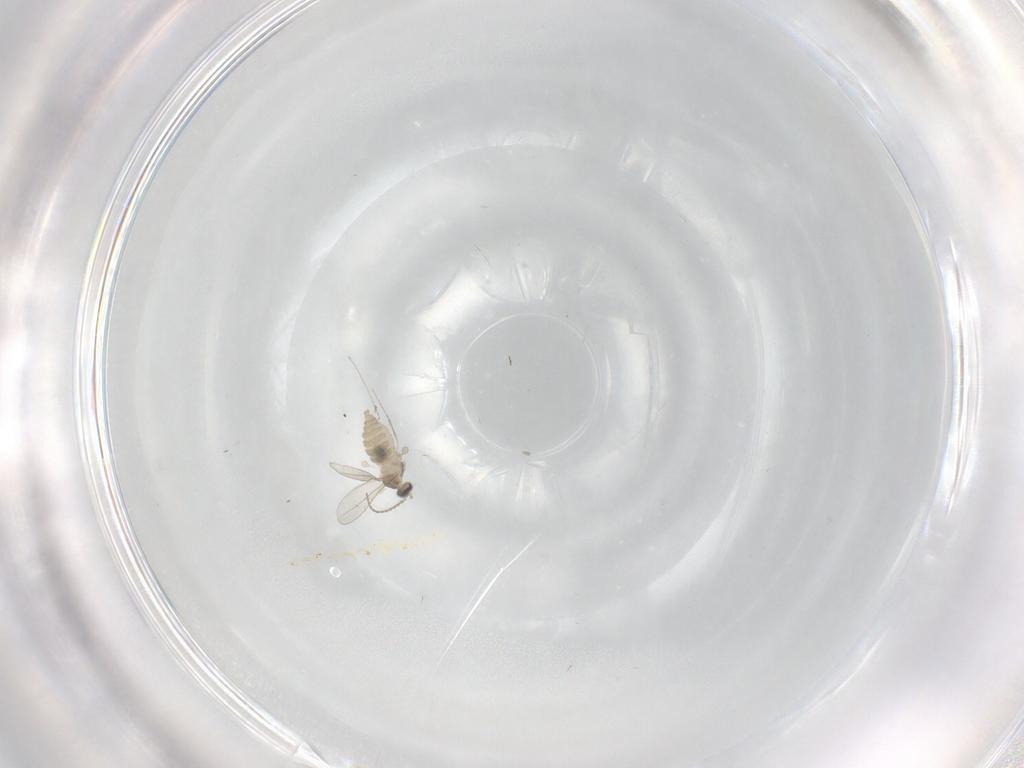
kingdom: Animalia
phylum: Arthropoda
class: Insecta
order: Diptera
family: Cecidomyiidae
